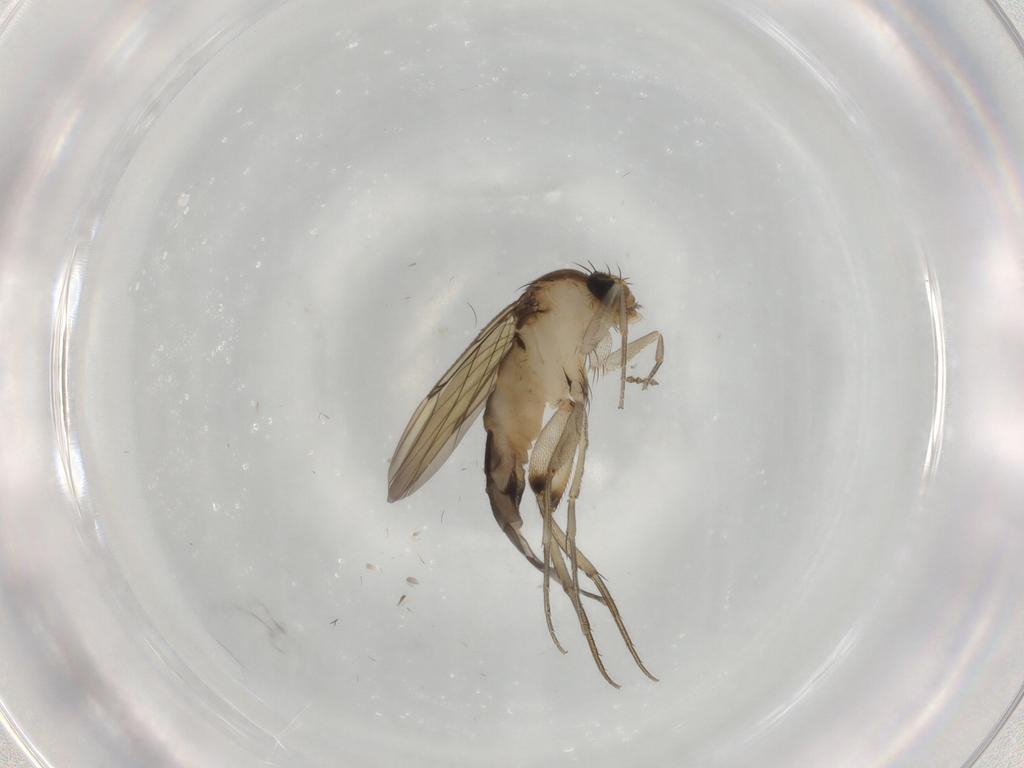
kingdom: Animalia
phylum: Arthropoda
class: Insecta
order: Diptera
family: Phoridae
